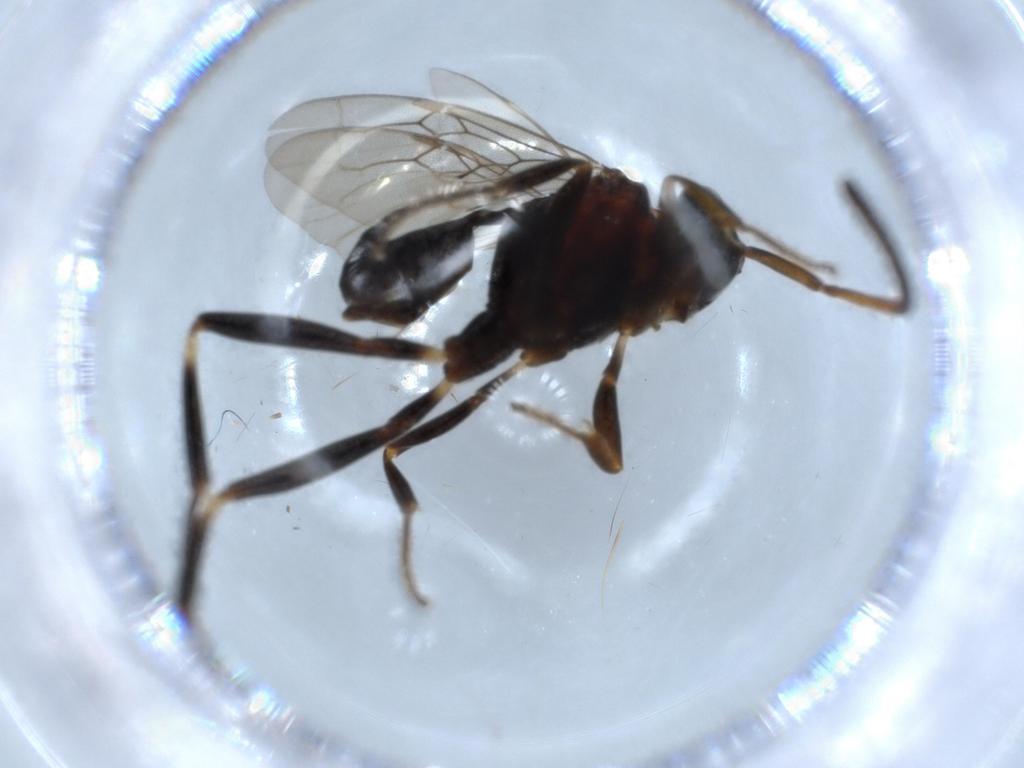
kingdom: Animalia
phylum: Arthropoda
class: Insecta
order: Hymenoptera
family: Evaniidae
